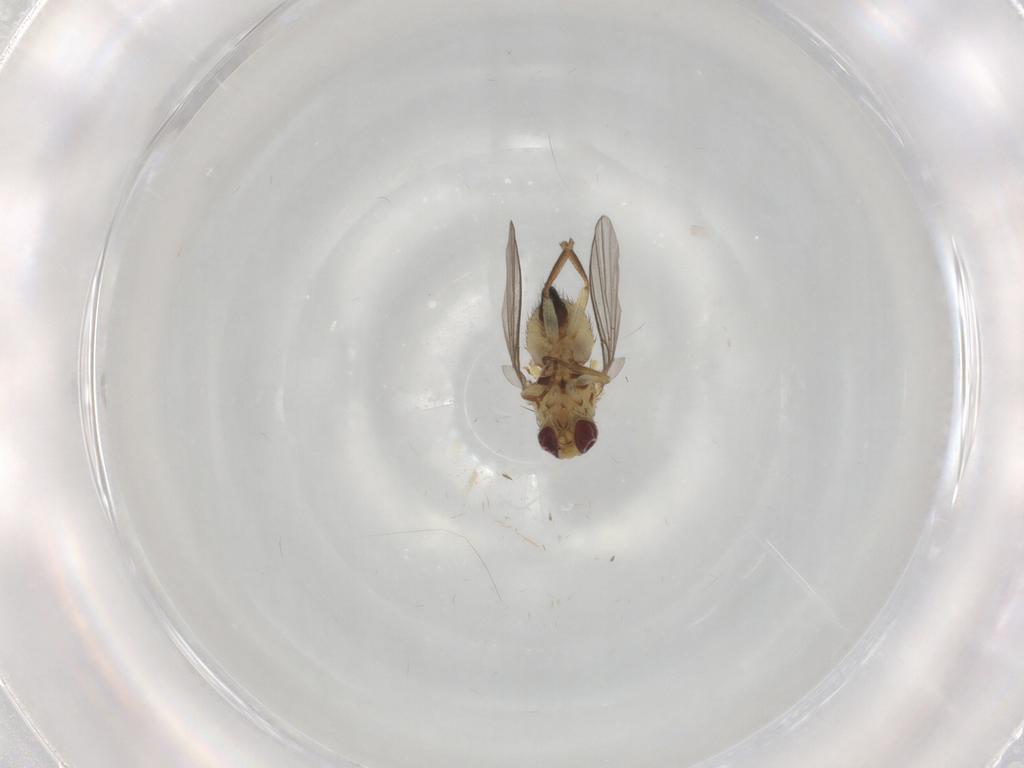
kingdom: Animalia
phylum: Arthropoda
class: Insecta
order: Diptera
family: Agromyzidae
